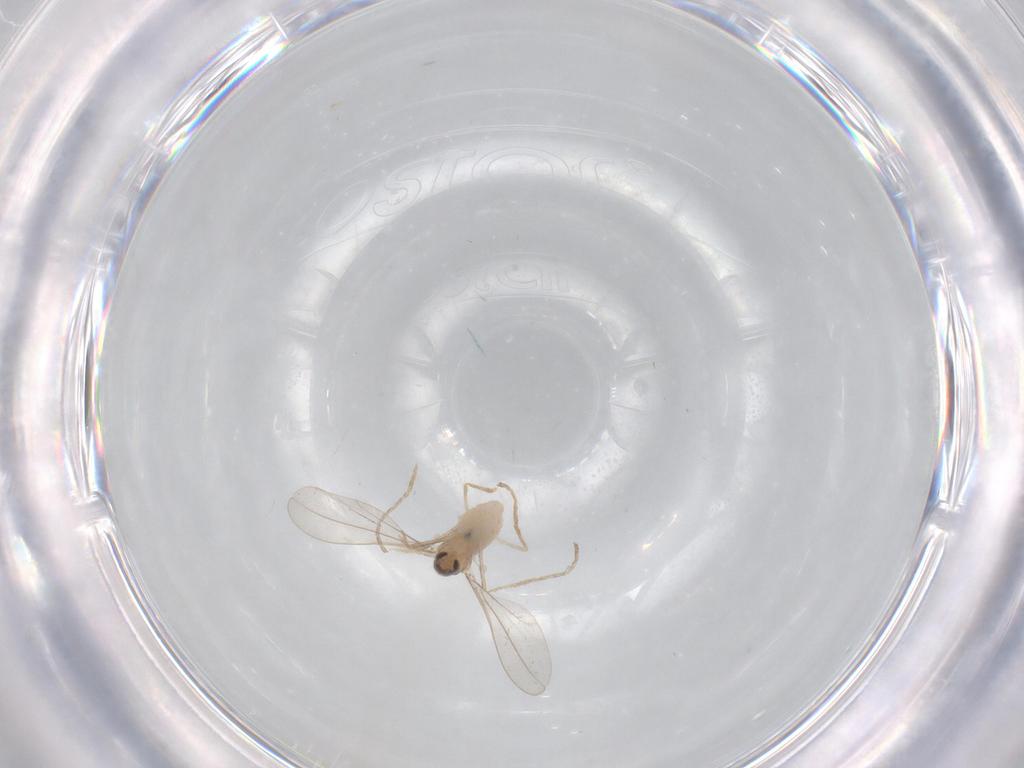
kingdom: Animalia
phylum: Arthropoda
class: Insecta
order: Diptera
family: Cecidomyiidae
